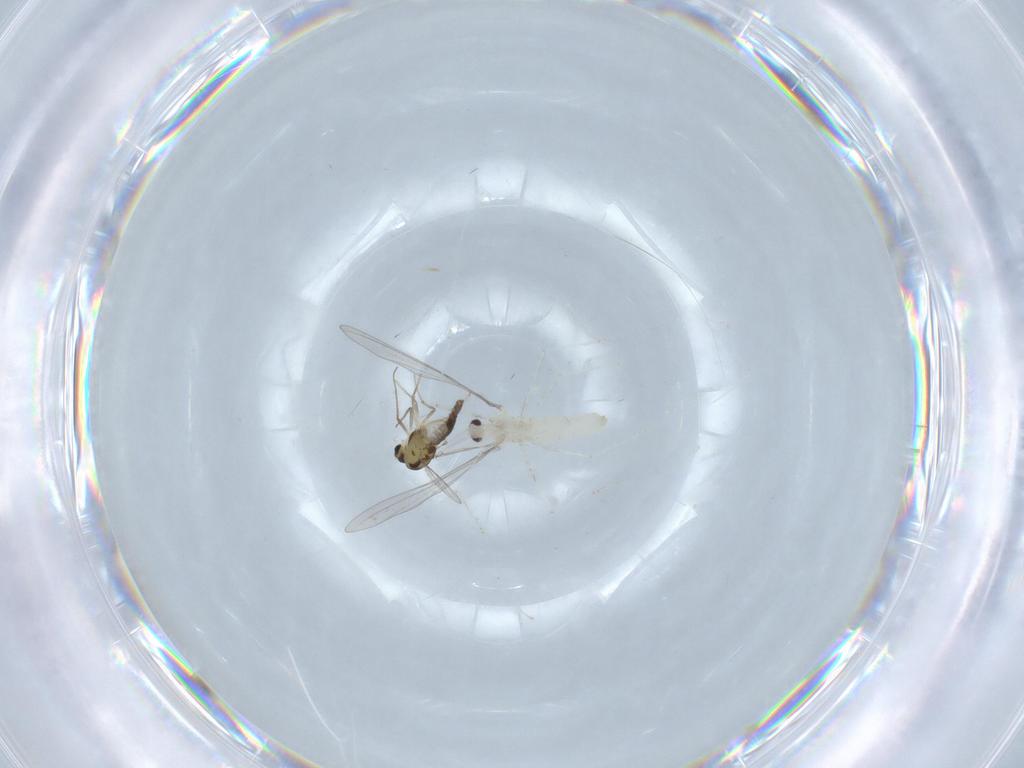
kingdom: Animalia
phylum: Arthropoda
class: Insecta
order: Diptera
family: Chironomidae
